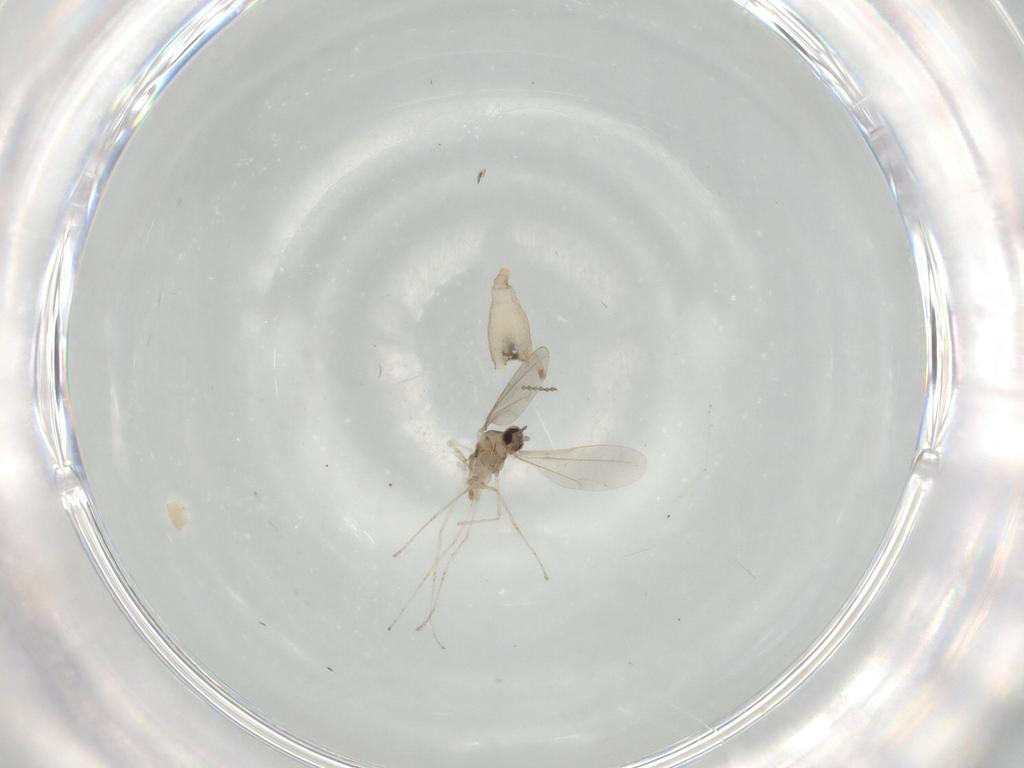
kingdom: Animalia
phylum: Arthropoda
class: Insecta
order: Diptera
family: Cecidomyiidae
